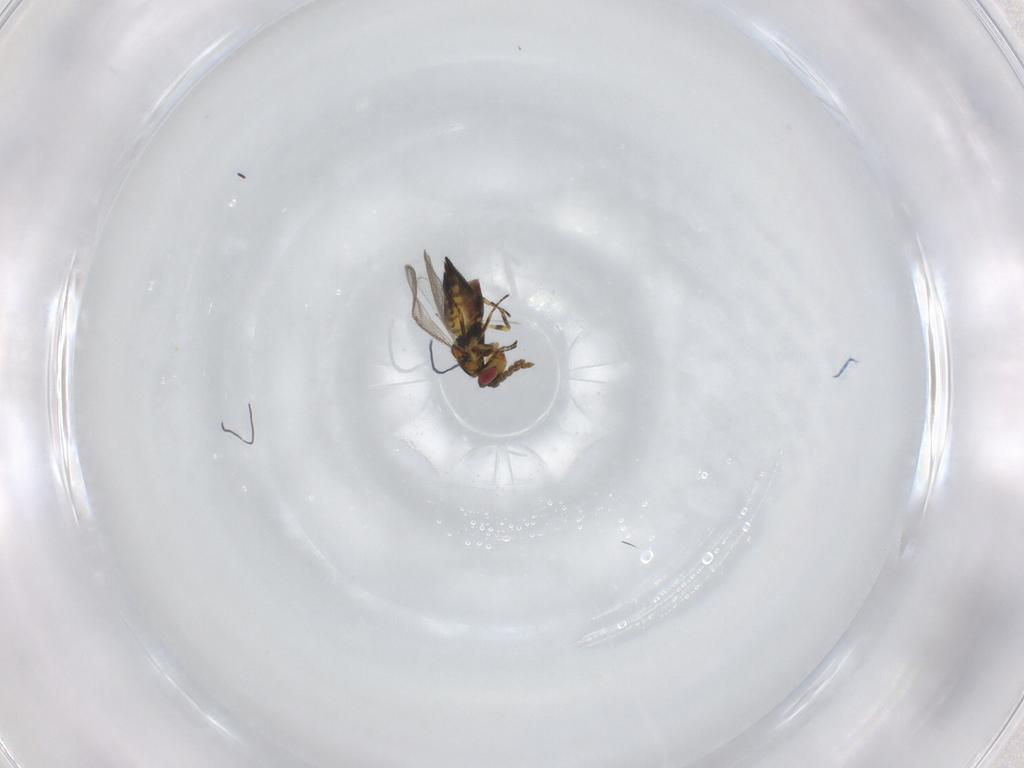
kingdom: Animalia
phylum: Arthropoda
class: Insecta
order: Hymenoptera
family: Eulophidae
